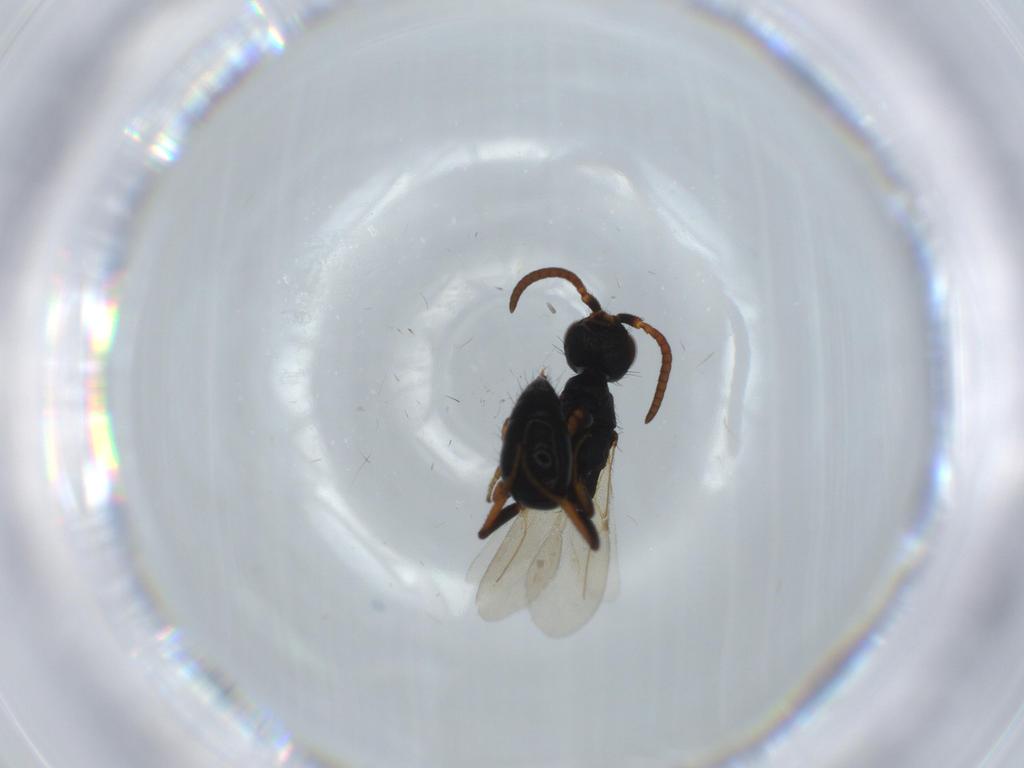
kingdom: Animalia
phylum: Arthropoda
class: Insecta
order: Hymenoptera
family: Bethylidae
